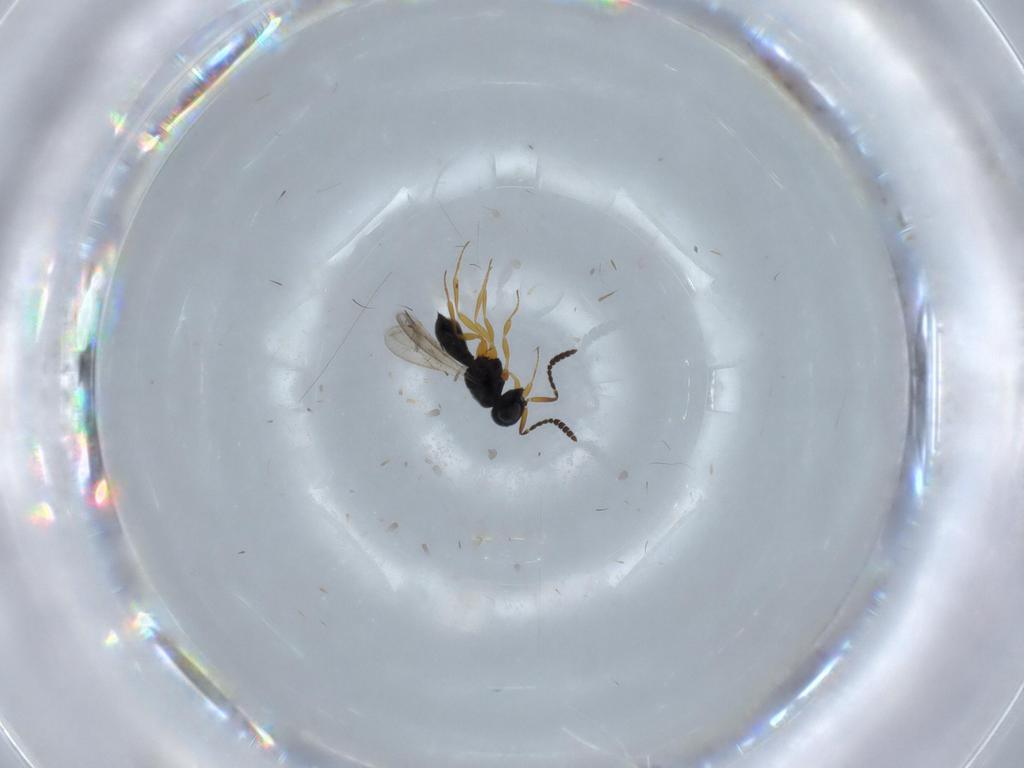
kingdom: Animalia
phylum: Arthropoda
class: Insecta
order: Hymenoptera
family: Scelionidae
